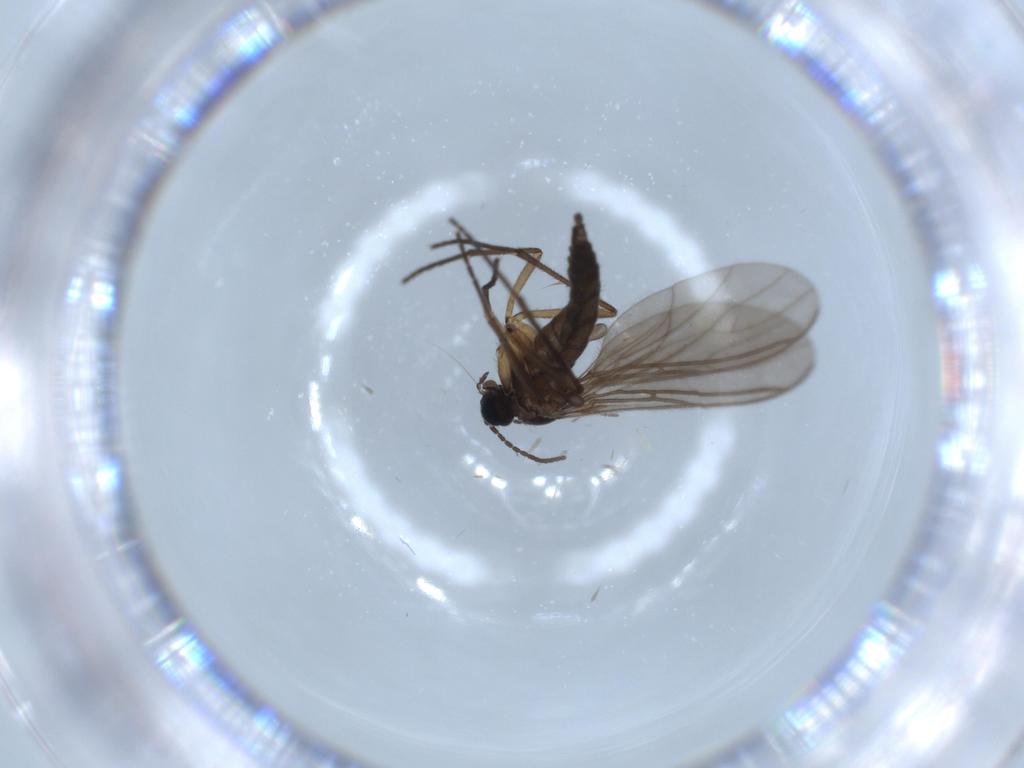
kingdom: Animalia
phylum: Arthropoda
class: Insecta
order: Diptera
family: Sciaridae
